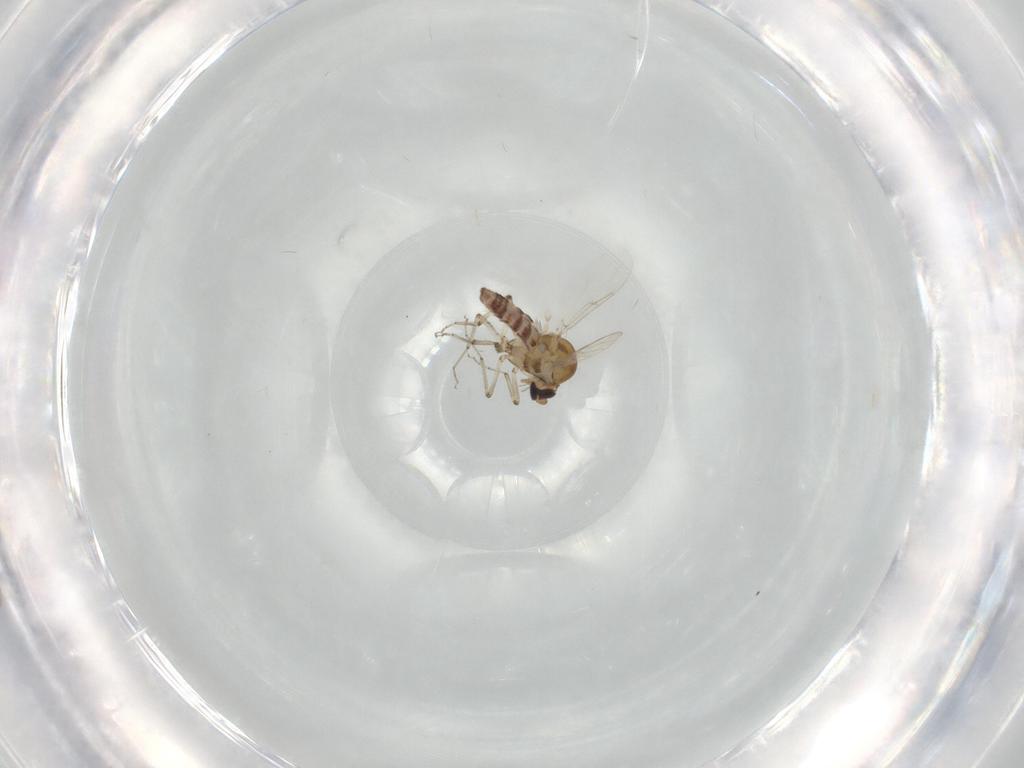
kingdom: Animalia
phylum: Arthropoda
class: Insecta
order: Diptera
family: Ceratopogonidae
